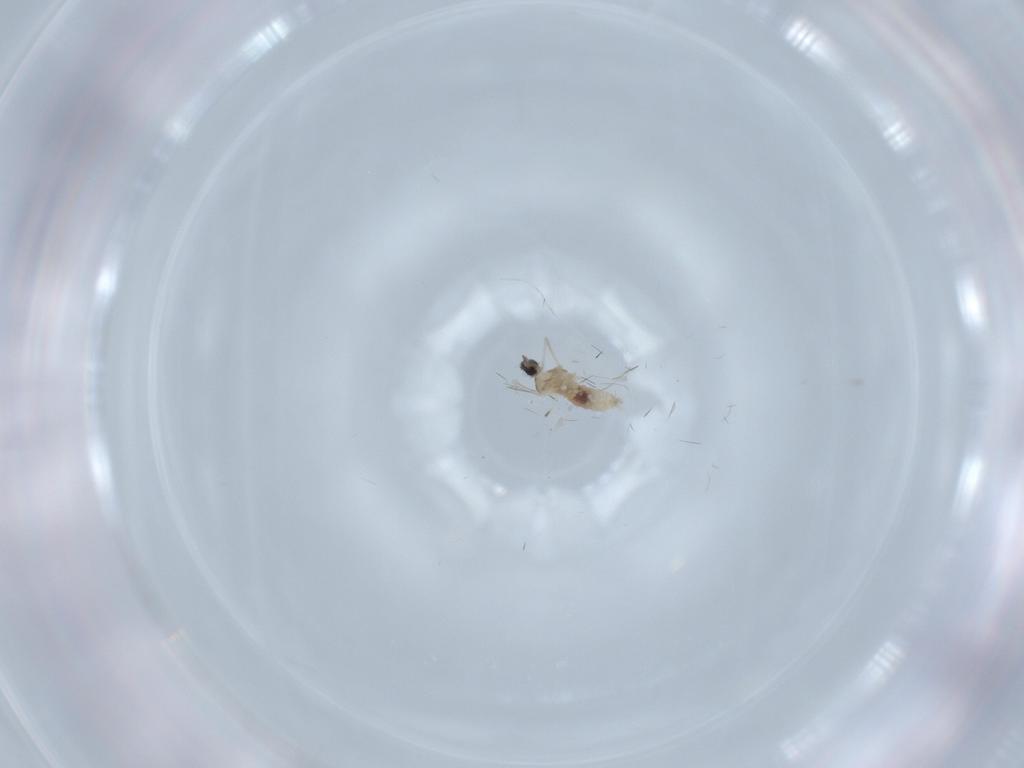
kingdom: Animalia
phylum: Arthropoda
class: Insecta
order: Diptera
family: Cecidomyiidae
